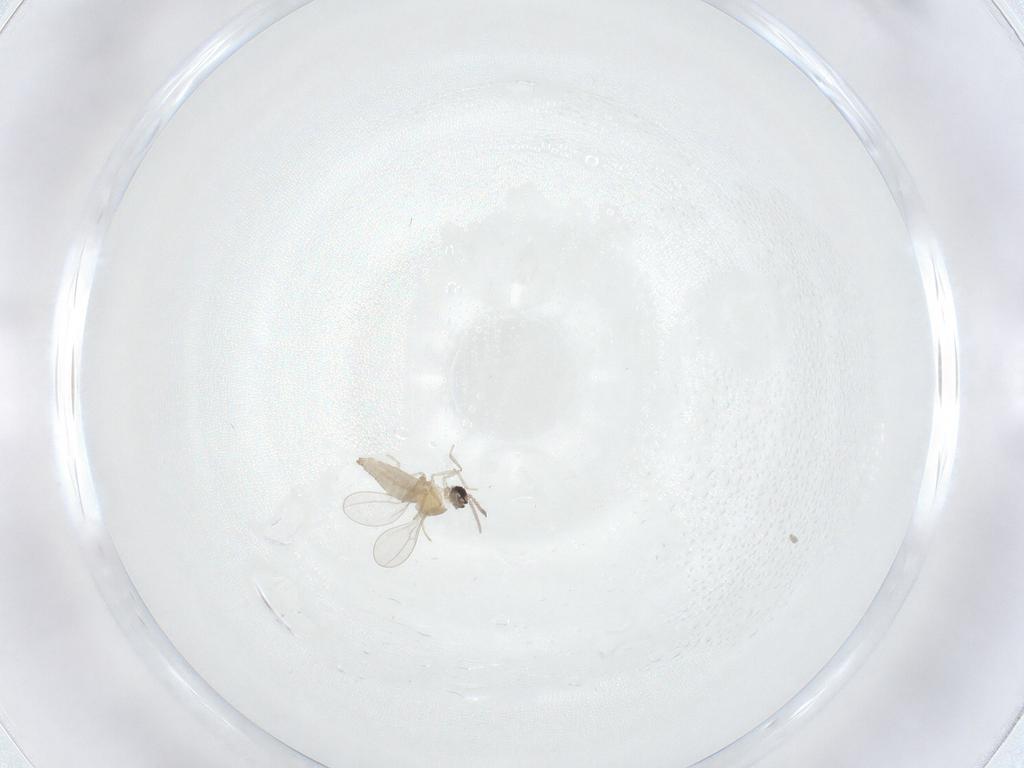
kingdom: Animalia
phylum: Arthropoda
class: Insecta
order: Diptera
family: Cecidomyiidae
